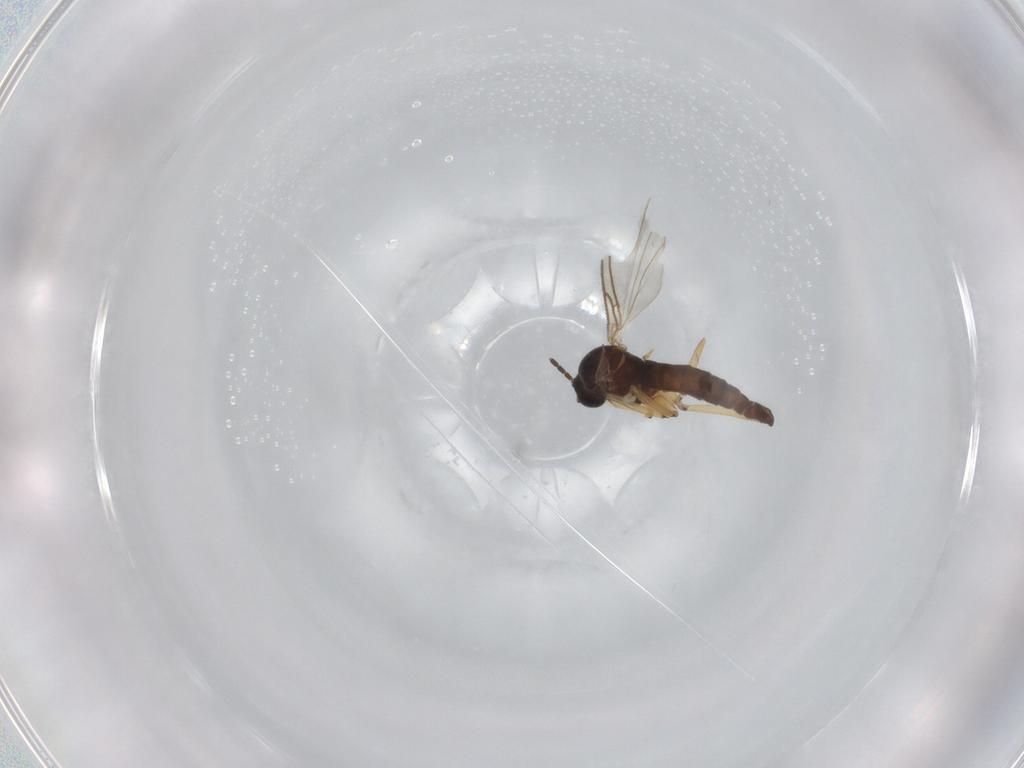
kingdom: Animalia
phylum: Arthropoda
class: Insecta
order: Diptera
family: Sciaridae
